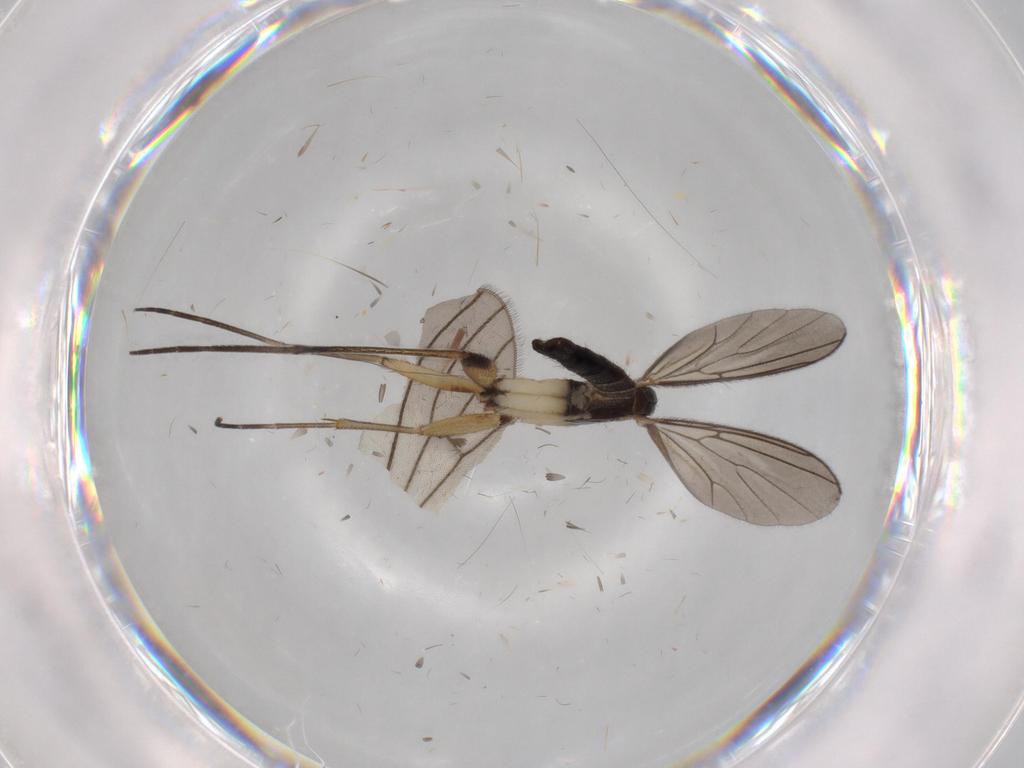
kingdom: Animalia
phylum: Arthropoda
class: Insecta
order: Diptera
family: Mycetophilidae
